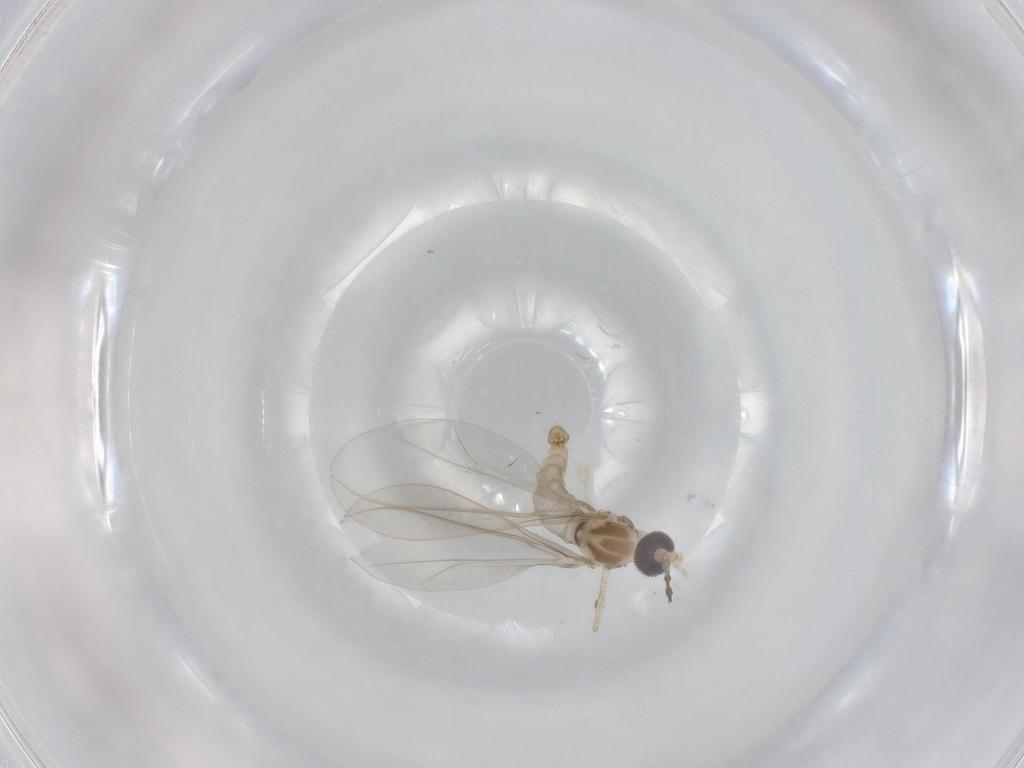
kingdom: Animalia
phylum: Arthropoda
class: Insecta
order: Diptera
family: Cecidomyiidae
